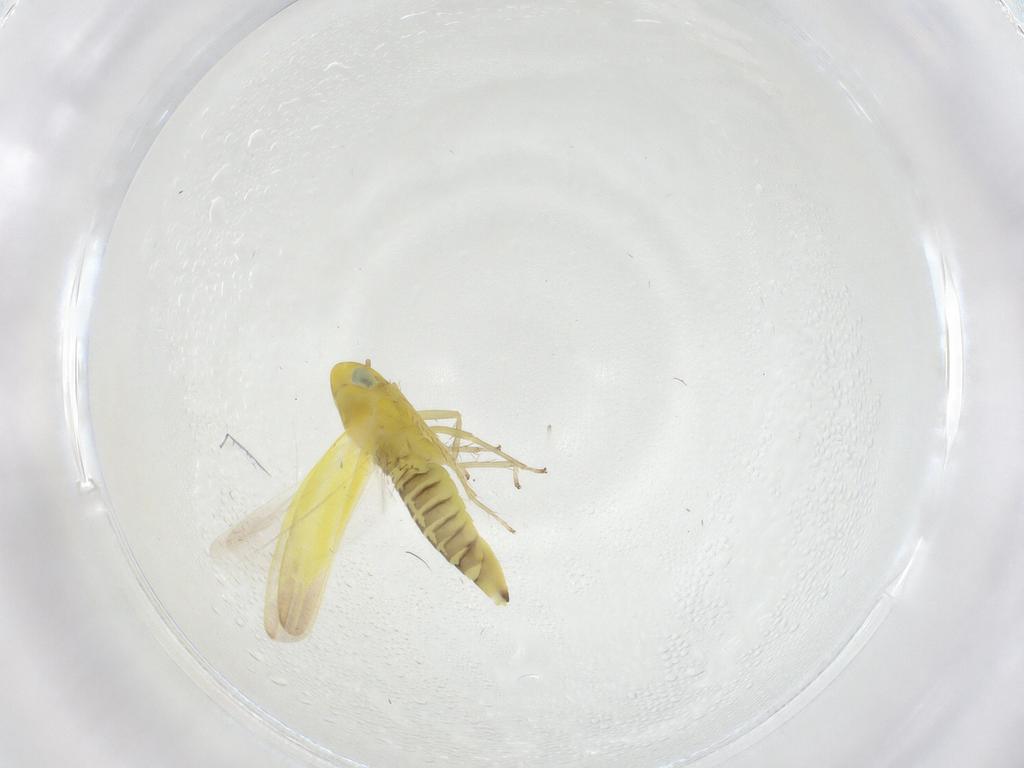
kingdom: Animalia
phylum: Arthropoda
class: Insecta
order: Hemiptera
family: Cicadellidae
